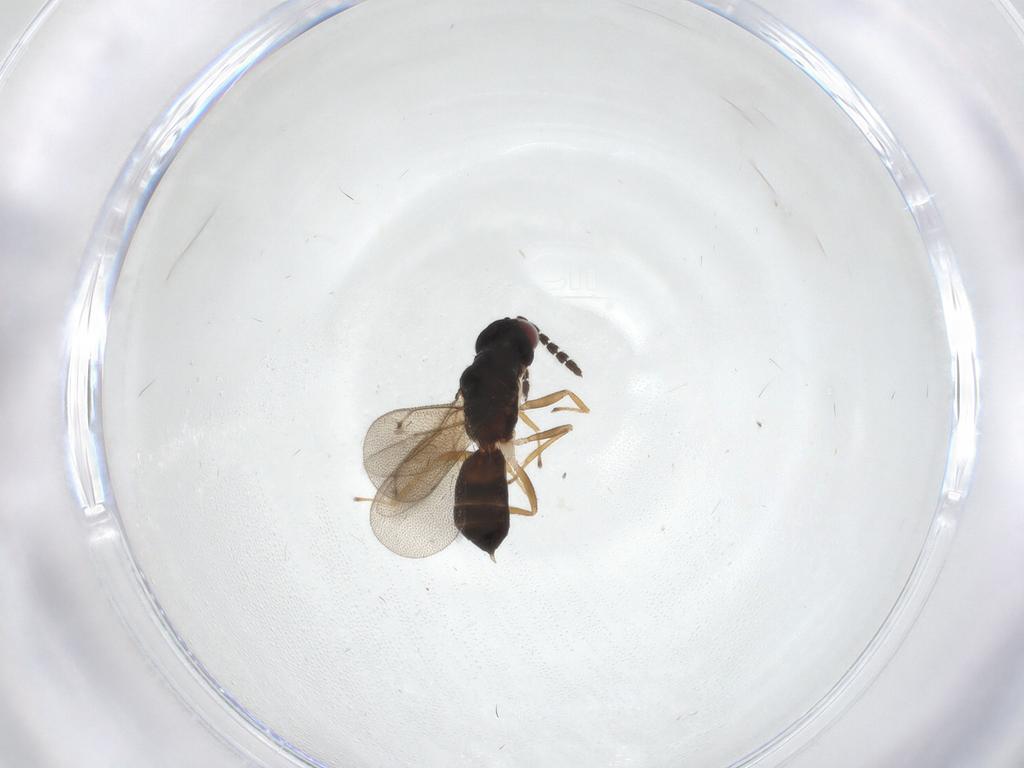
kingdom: Animalia
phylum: Arthropoda
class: Insecta
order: Hymenoptera
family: Eulophidae
